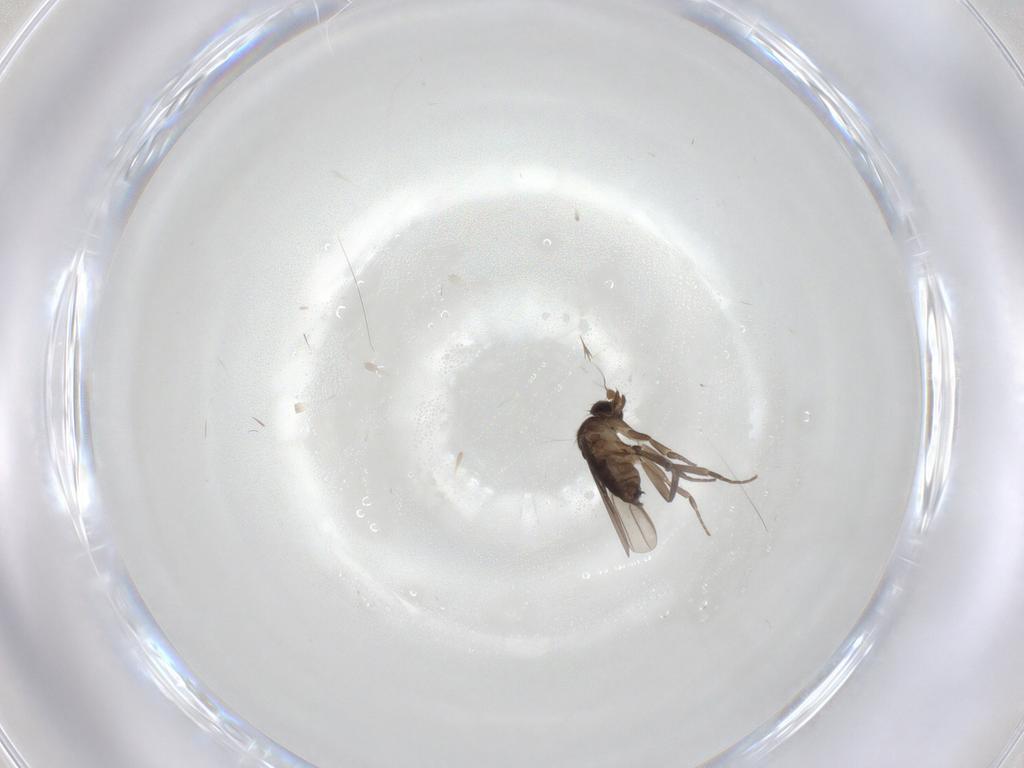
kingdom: Animalia
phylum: Arthropoda
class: Insecta
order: Diptera
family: Phoridae
